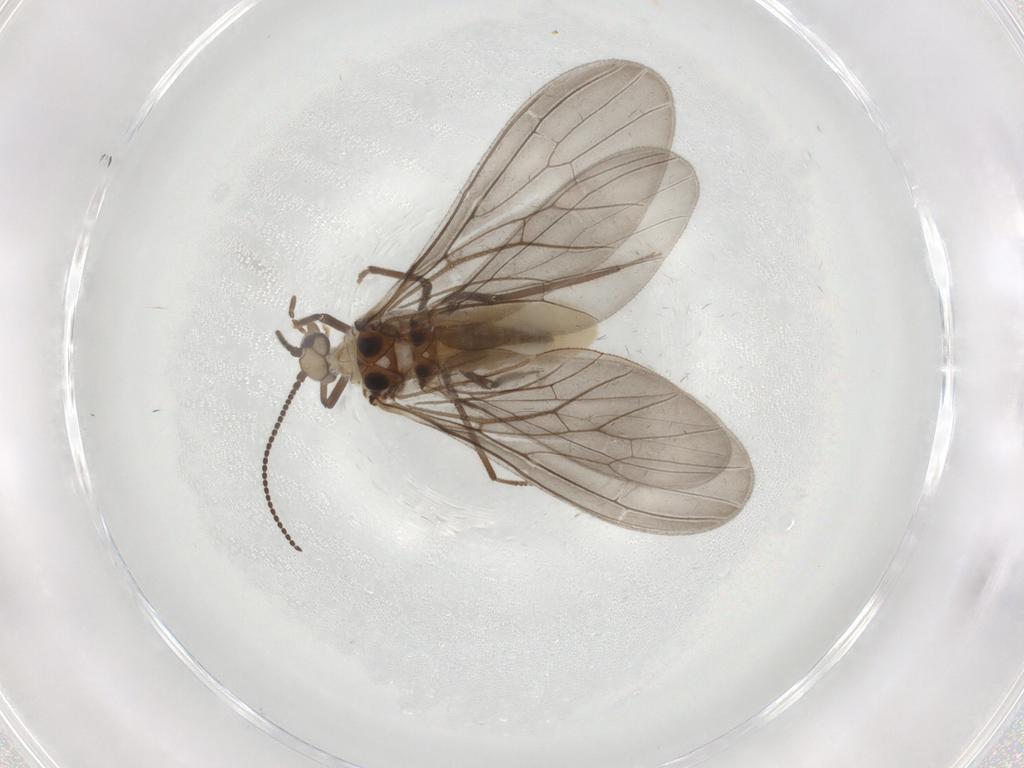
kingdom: Animalia
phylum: Arthropoda
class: Insecta
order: Neuroptera
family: Coniopterygidae
